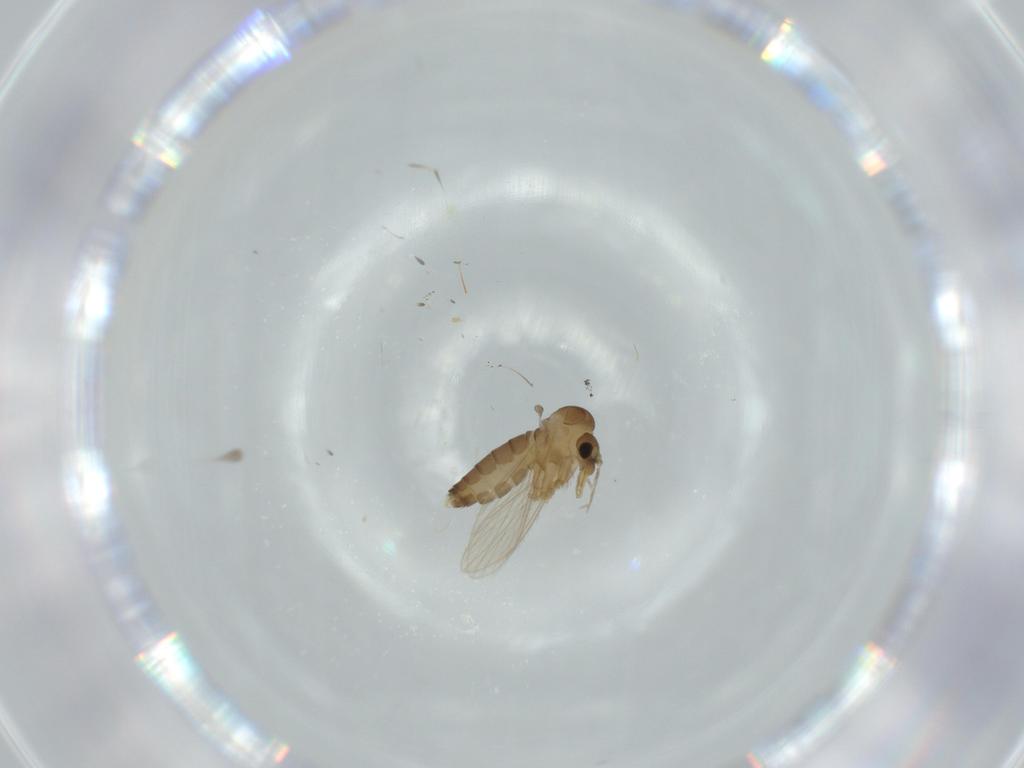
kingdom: Animalia
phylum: Arthropoda
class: Insecta
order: Diptera
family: Psychodidae
